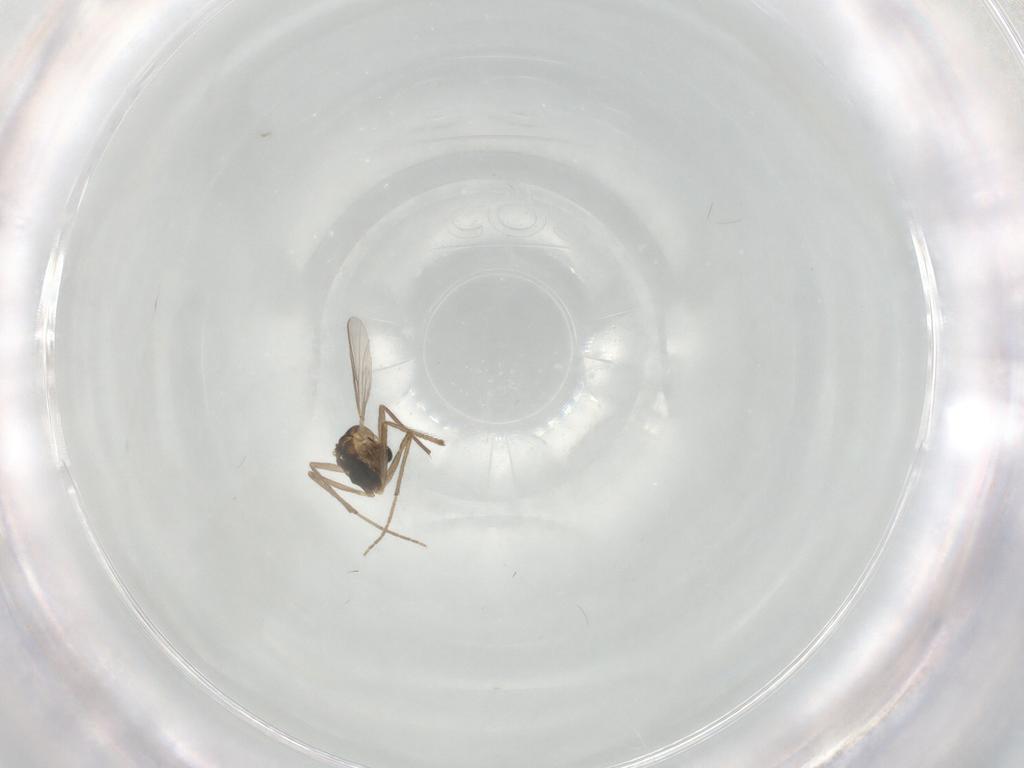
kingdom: Animalia
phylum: Arthropoda
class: Insecta
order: Diptera
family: Chironomidae
